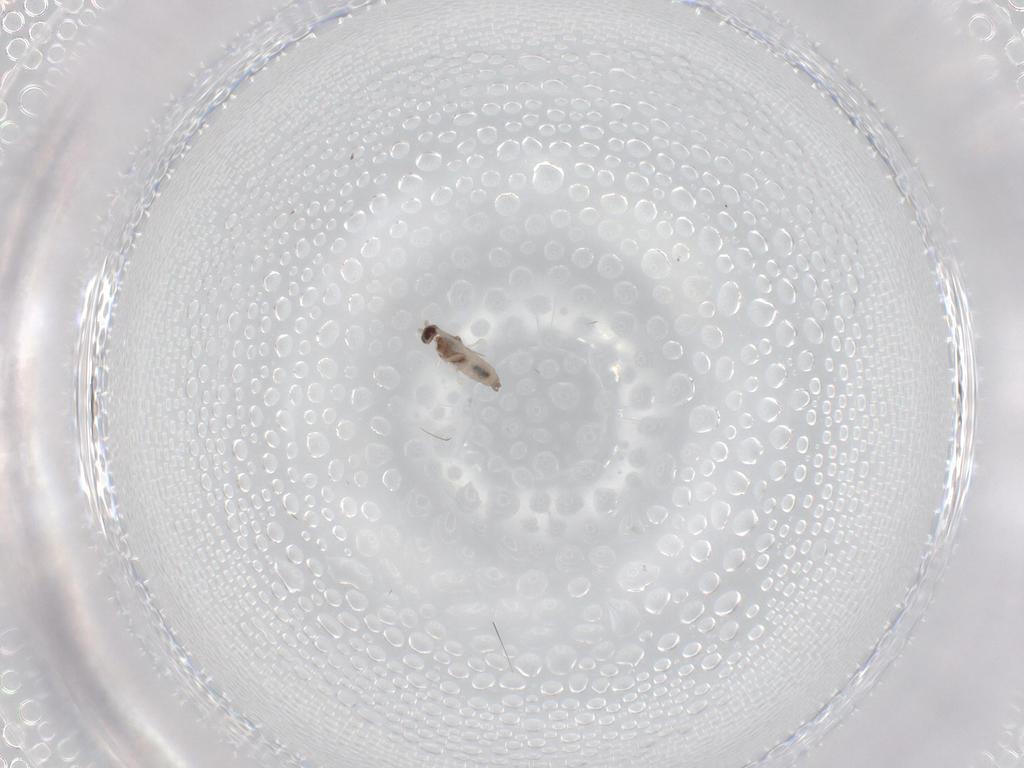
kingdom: Animalia
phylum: Arthropoda
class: Insecta
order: Diptera
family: Cecidomyiidae
